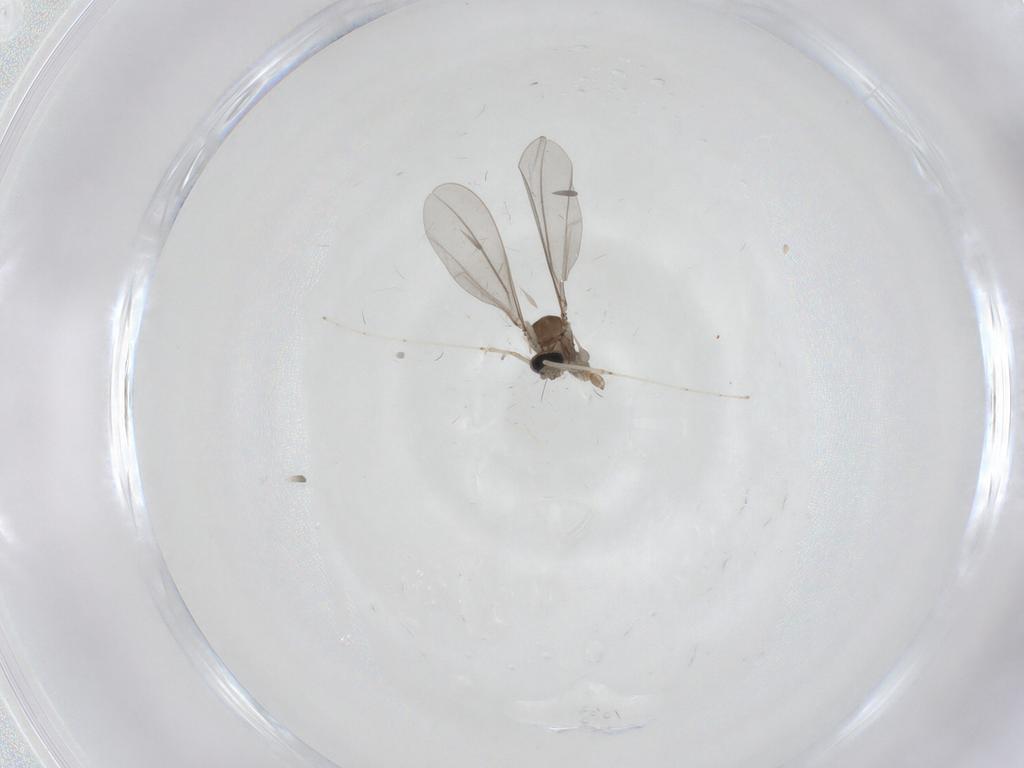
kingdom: Animalia
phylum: Arthropoda
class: Insecta
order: Diptera
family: Cecidomyiidae
